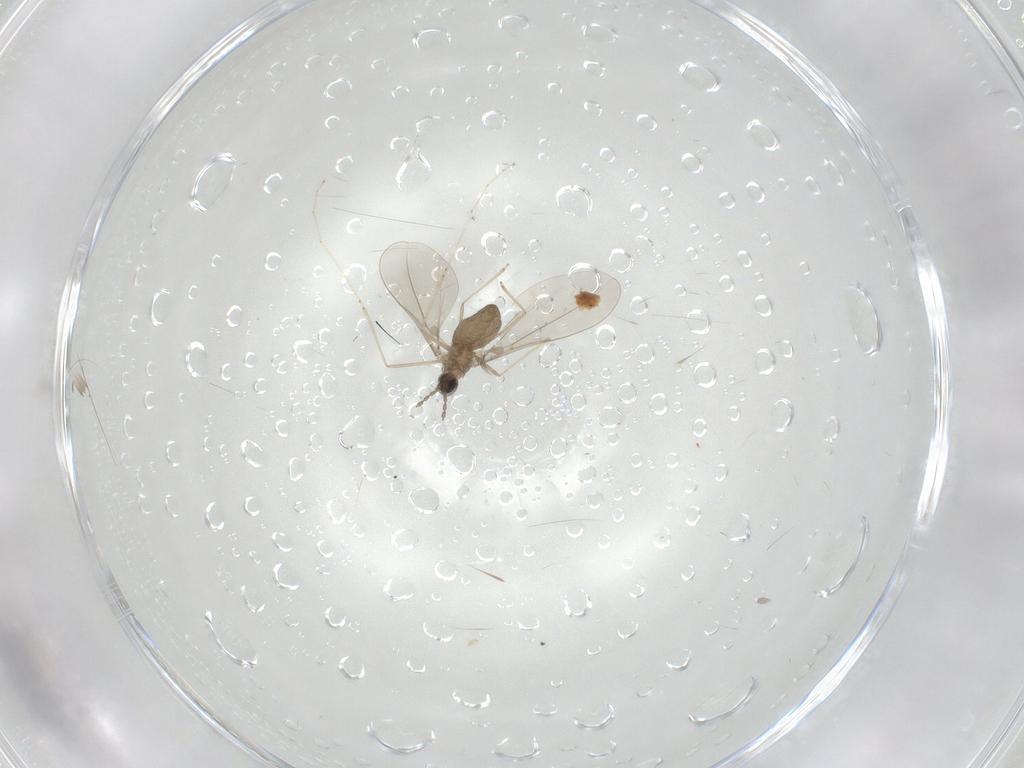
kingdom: Animalia
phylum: Arthropoda
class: Insecta
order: Diptera
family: Cecidomyiidae
